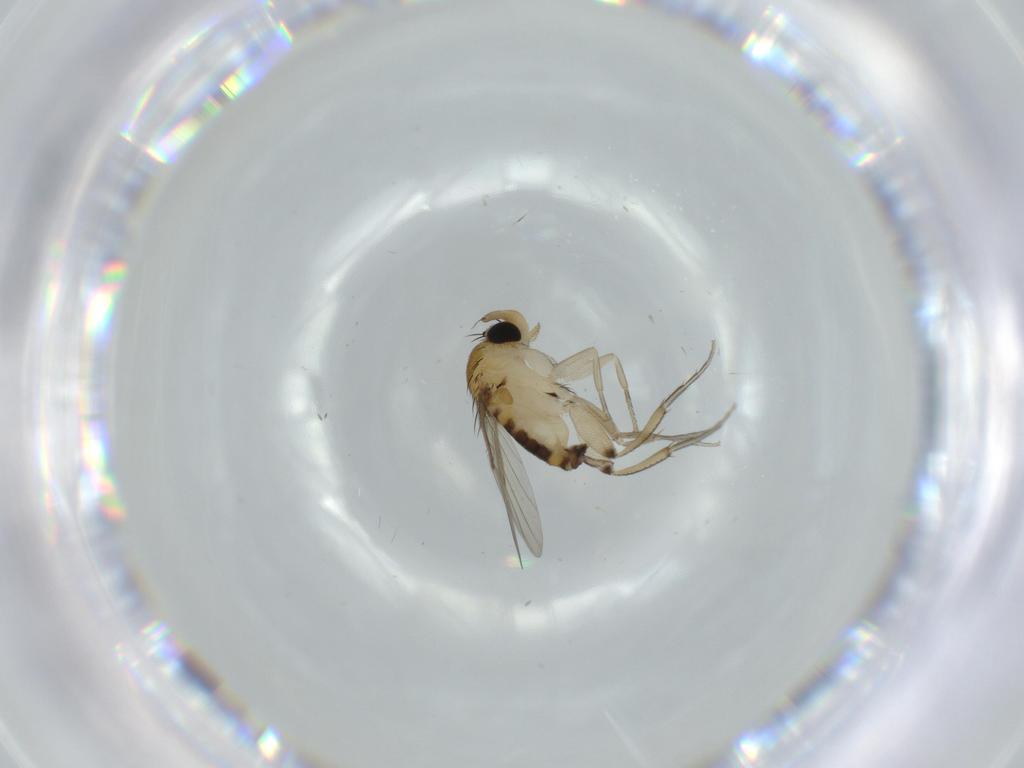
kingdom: Animalia
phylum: Arthropoda
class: Insecta
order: Diptera
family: Phoridae
